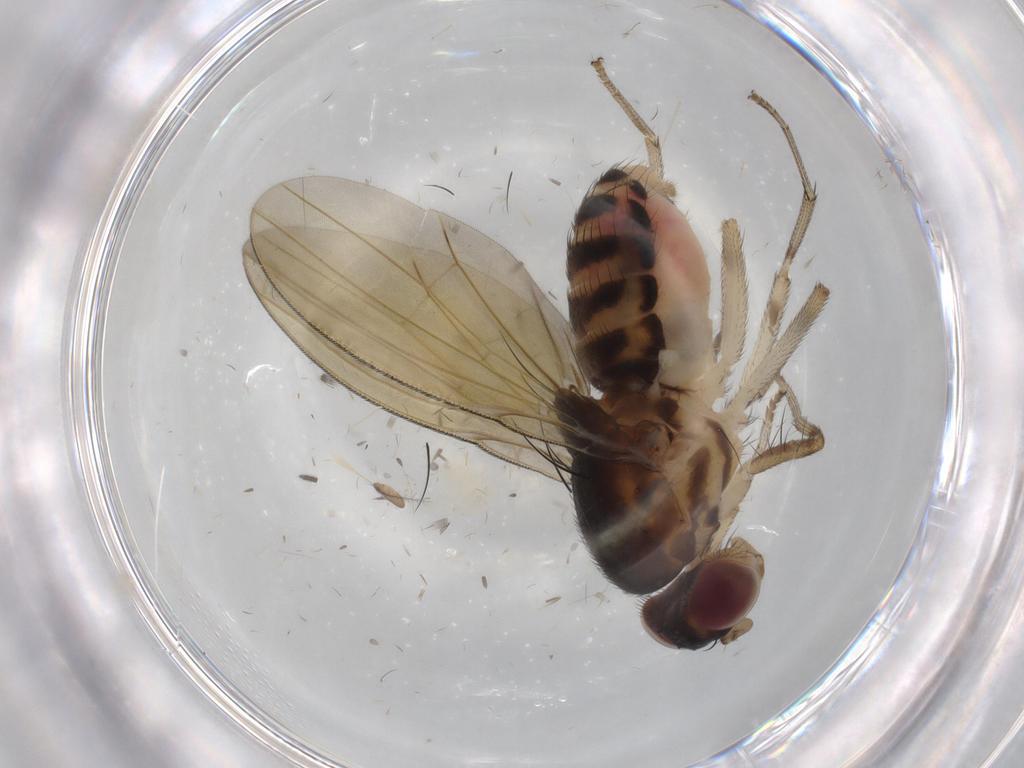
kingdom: Animalia
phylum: Arthropoda
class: Insecta
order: Diptera
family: Lauxaniidae
